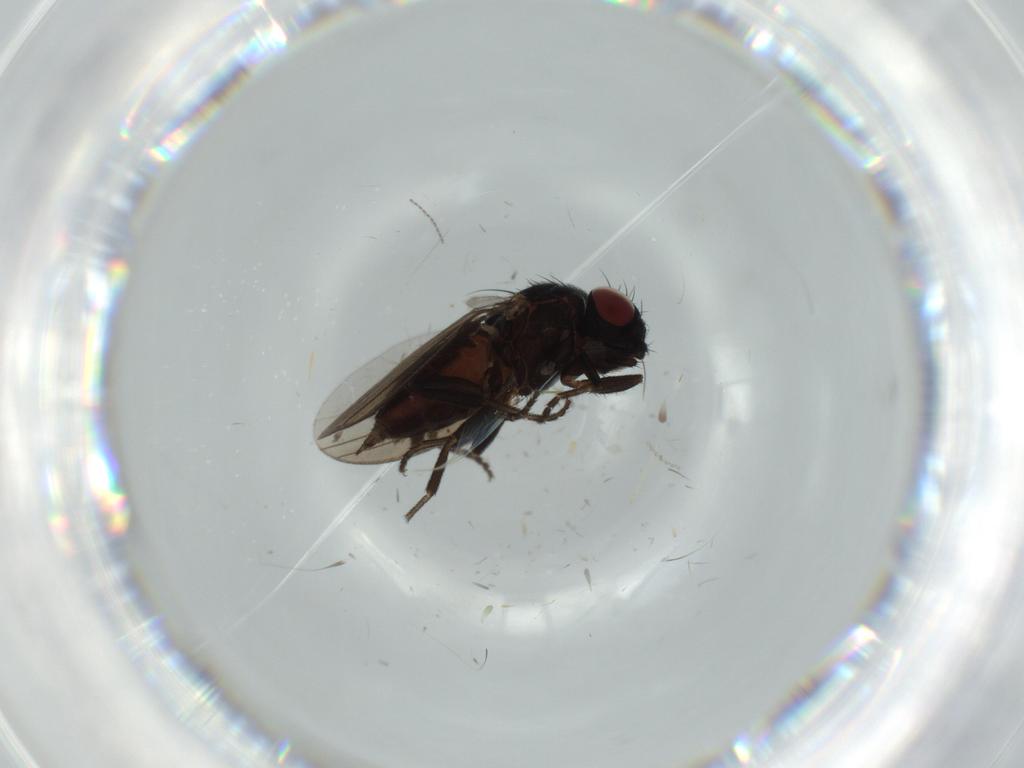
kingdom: Animalia
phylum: Arthropoda
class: Insecta
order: Diptera
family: Milichiidae
